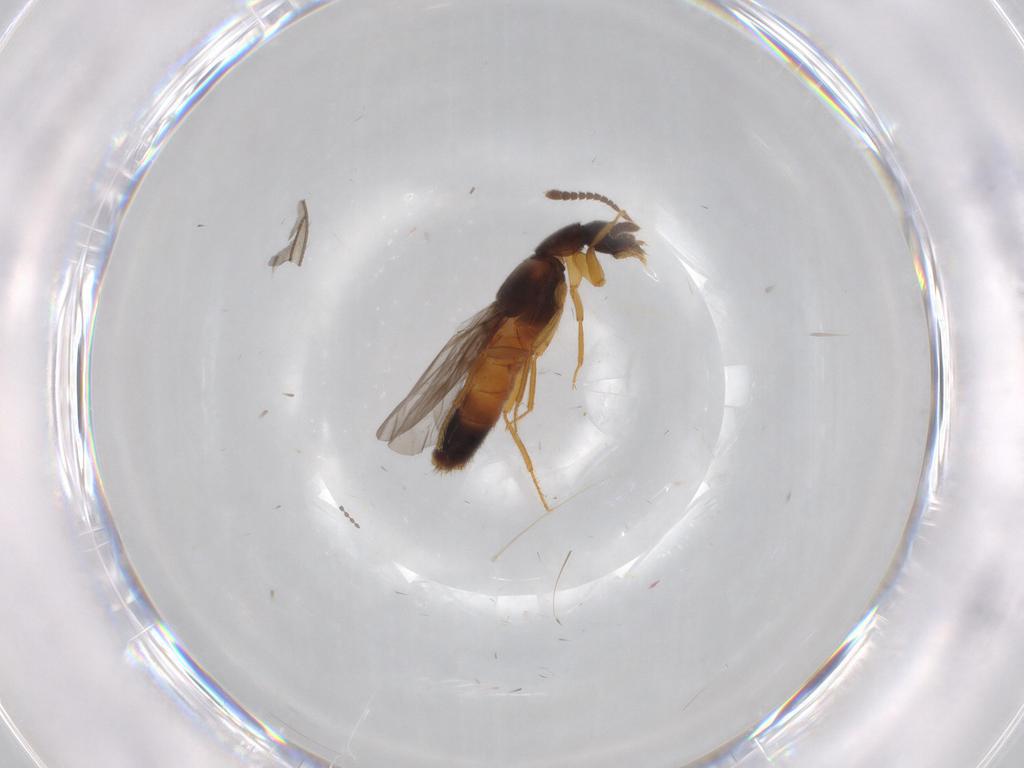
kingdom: Animalia
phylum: Arthropoda
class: Insecta
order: Coleoptera
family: Staphylinidae
